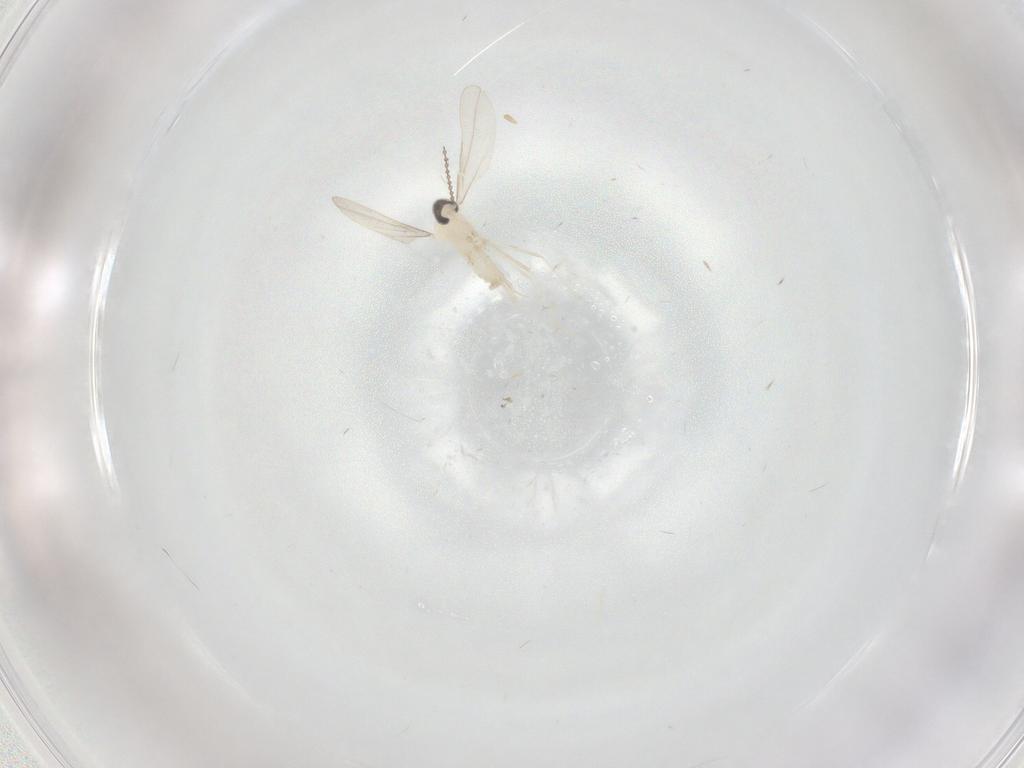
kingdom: Animalia
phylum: Arthropoda
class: Insecta
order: Diptera
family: Cecidomyiidae
